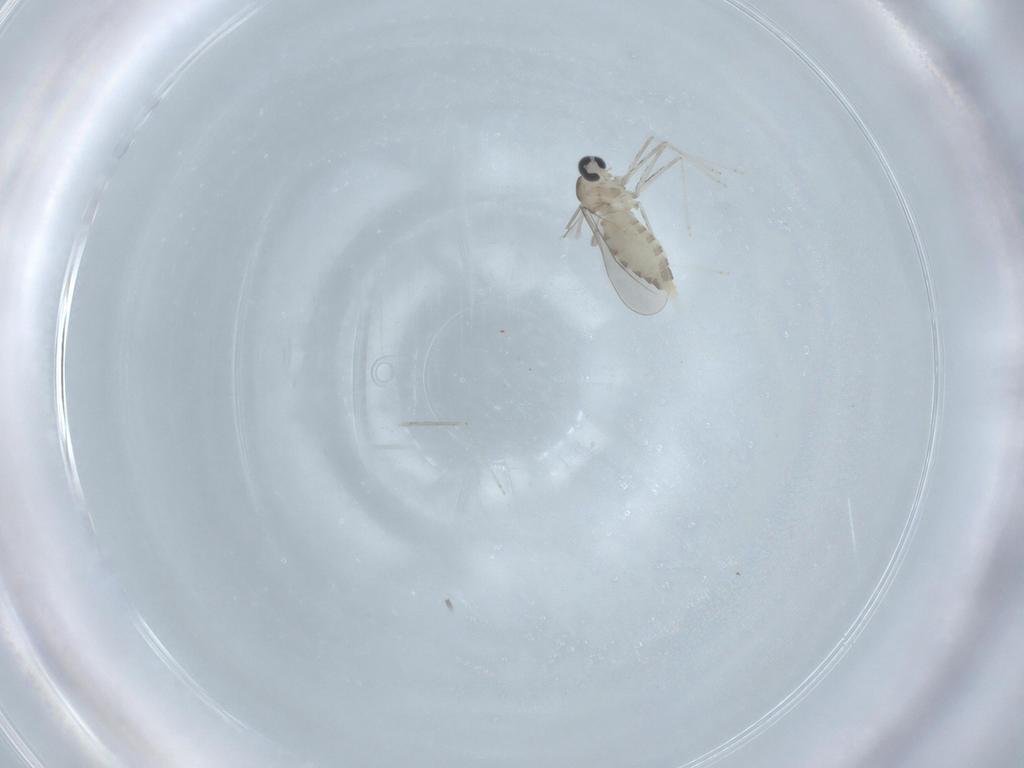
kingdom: Animalia
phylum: Arthropoda
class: Insecta
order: Diptera
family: Cecidomyiidae
